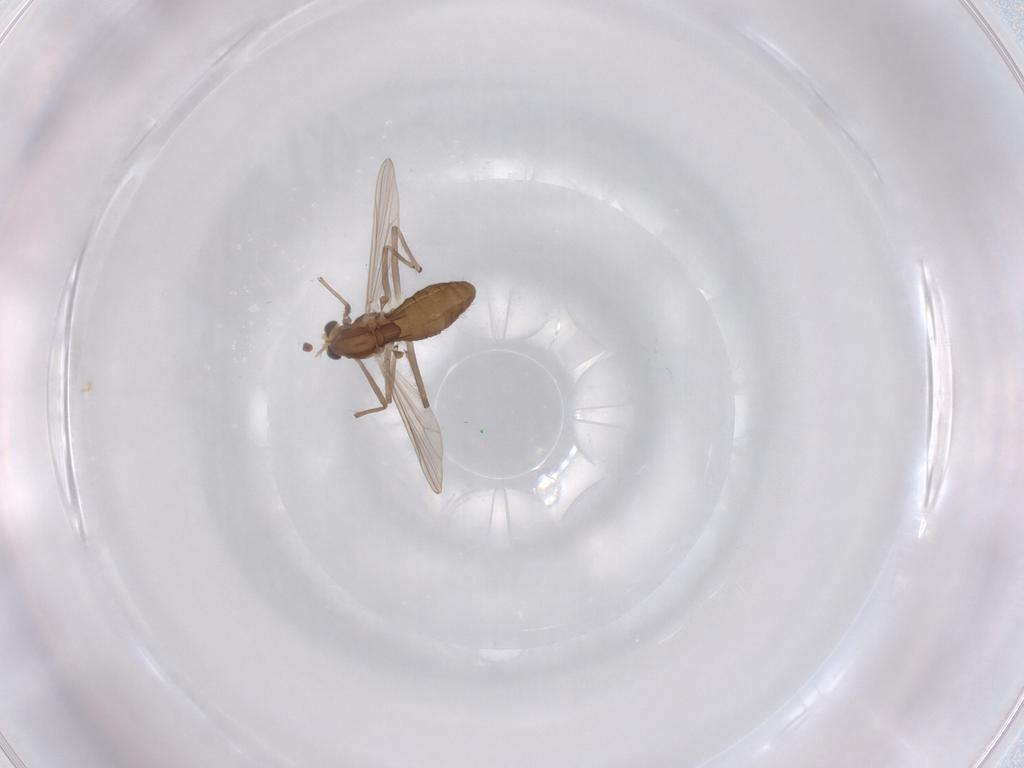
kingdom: Animalia
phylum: Arthropoda
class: Insecta
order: Diptera
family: Chironomidae
